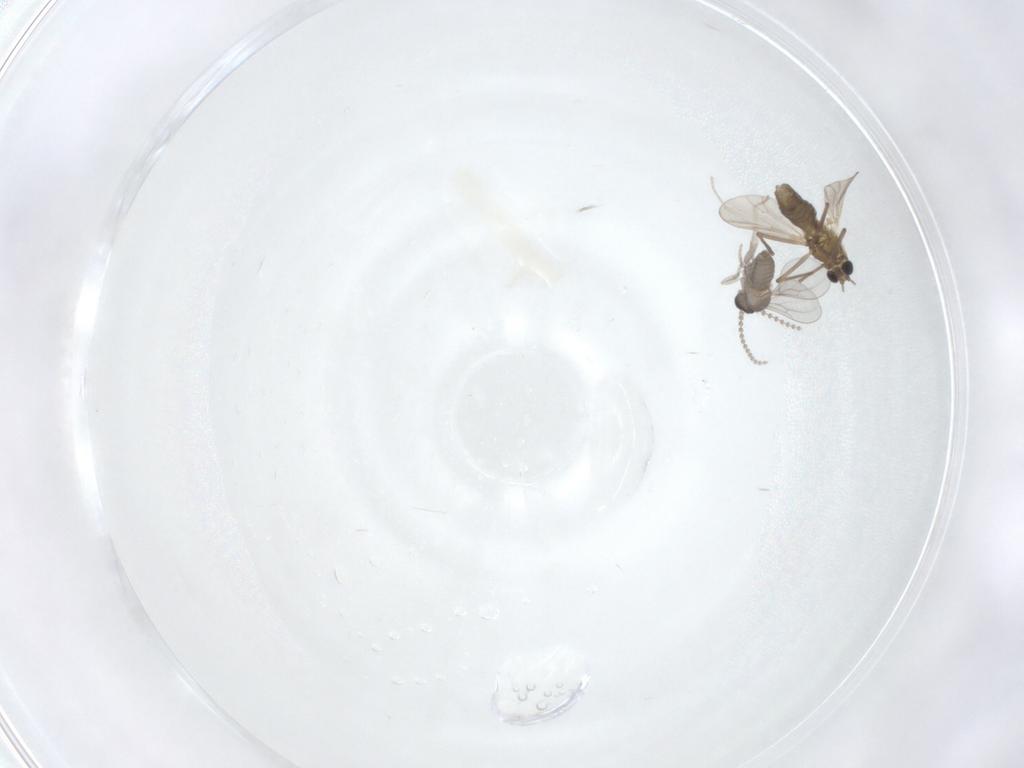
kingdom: Animalia
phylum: Arthropoda
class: Insecta
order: Diptera
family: Chironomidae
